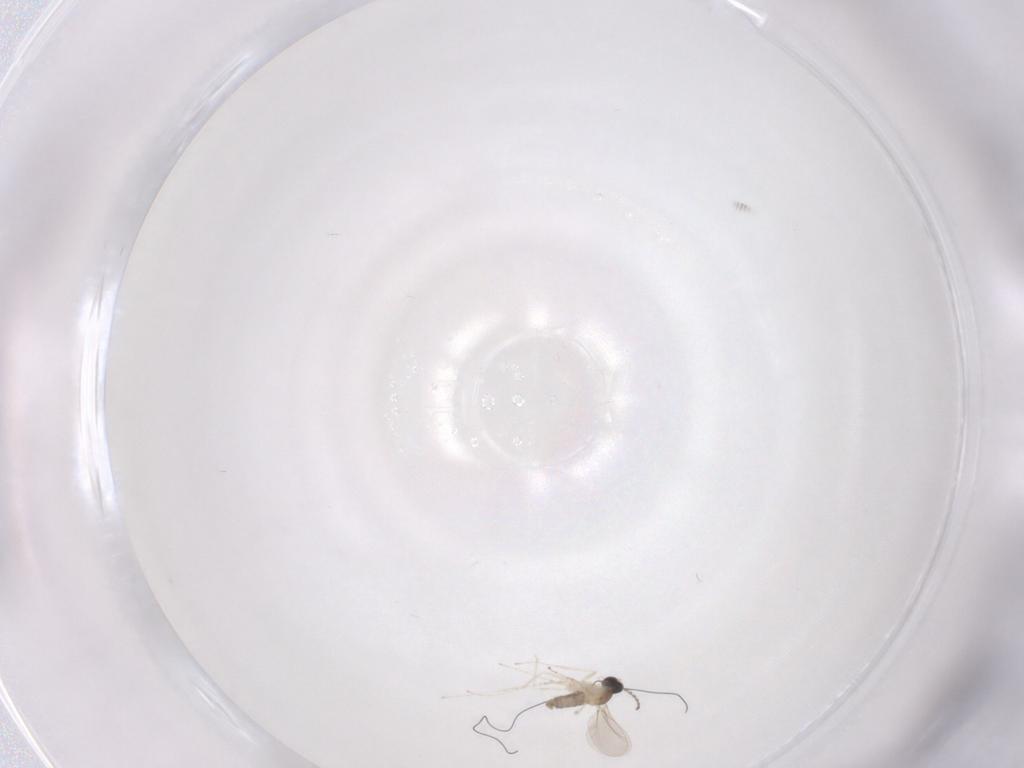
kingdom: Animalia
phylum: Arthropoda
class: Insecta
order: Diptera
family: Cecidomyiidae
